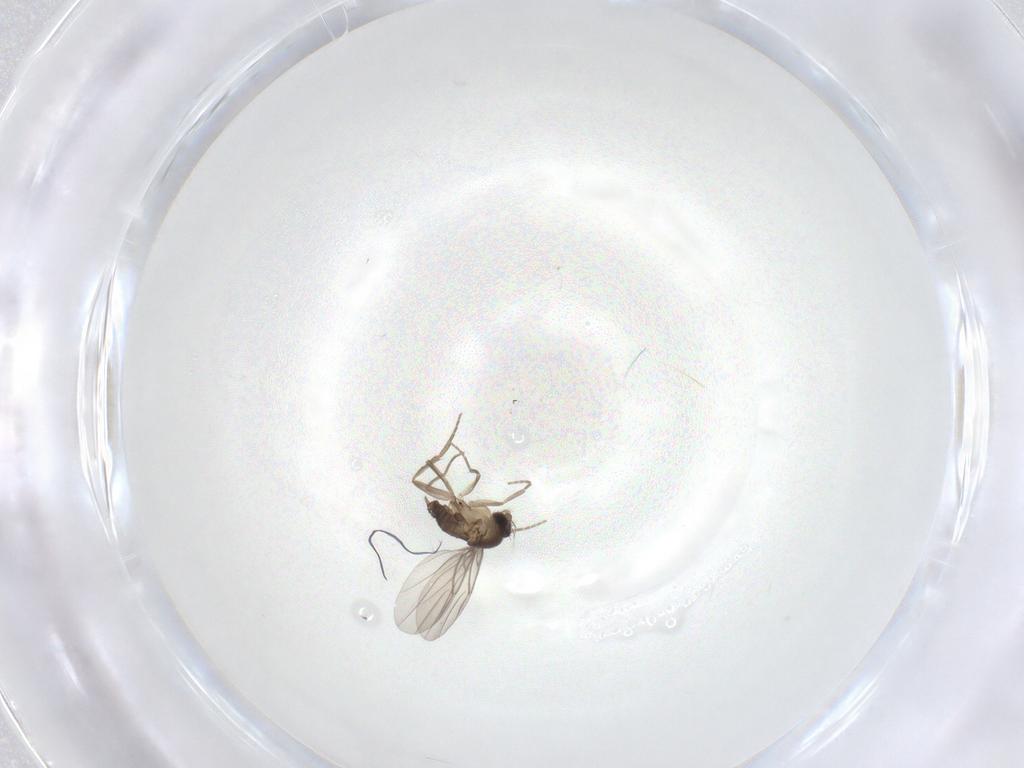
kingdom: Animalia
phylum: Arthropoda
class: Insecta
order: Diptera
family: Phoridae
